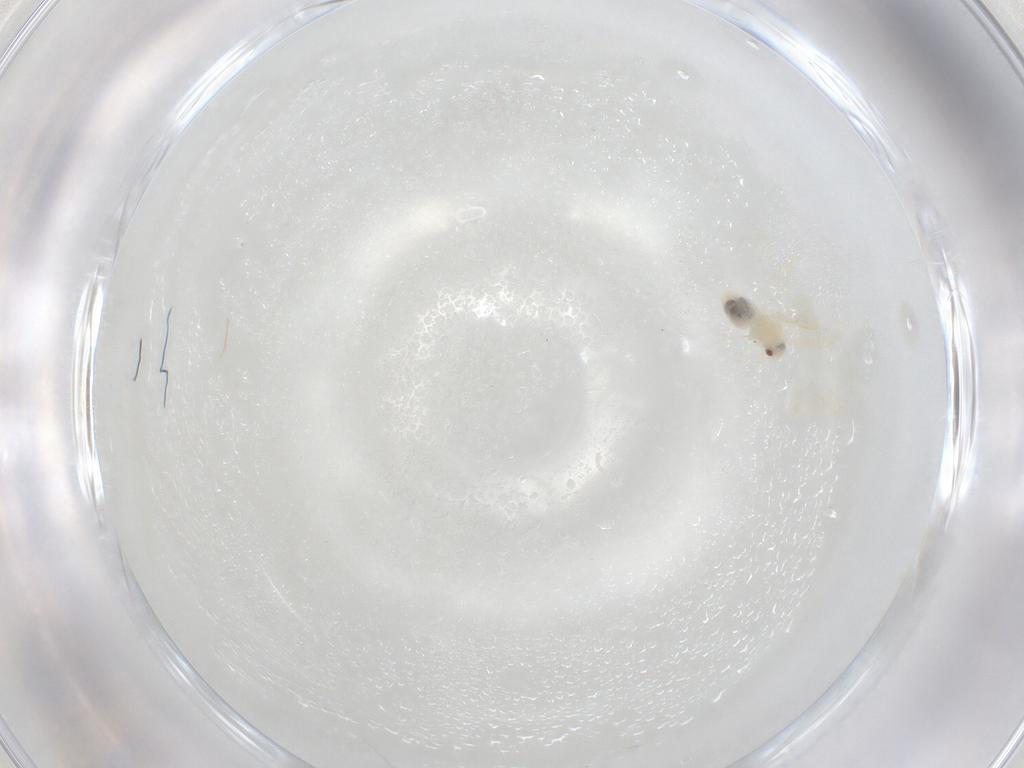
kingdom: Animalia
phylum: Arthropoda
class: Insecta
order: Hemiptera
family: Aleyrodidae
